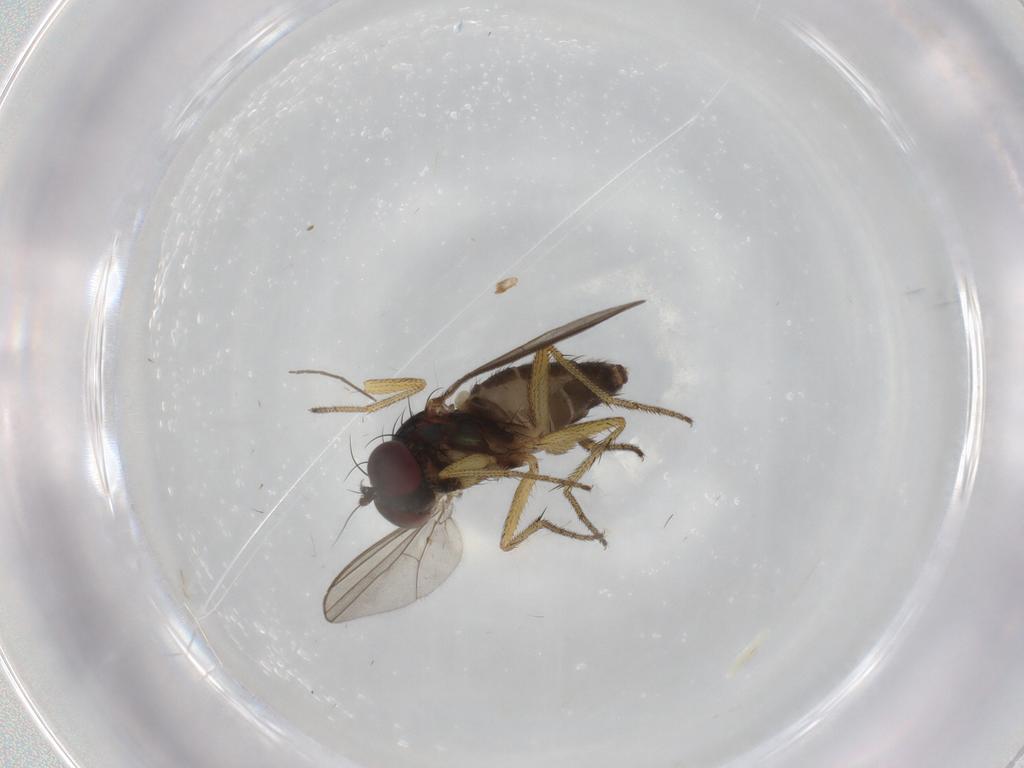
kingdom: Animalia
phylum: Arthropoda
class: Insecta
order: Diptera
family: Dolichopodidae
